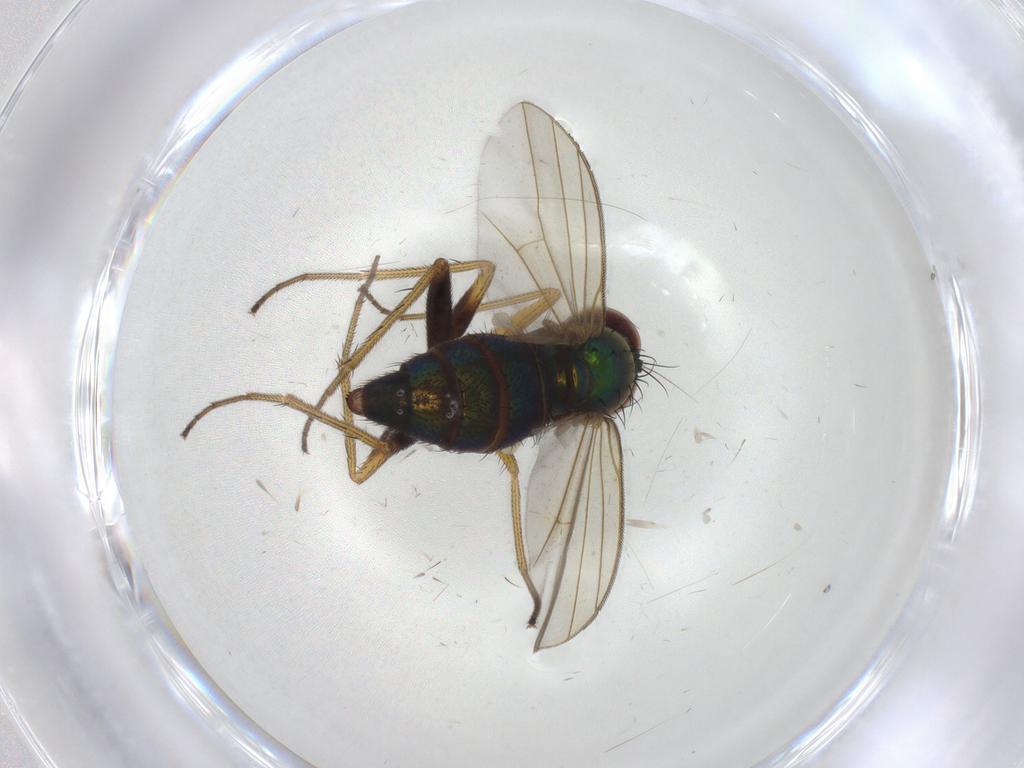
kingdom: Animalia
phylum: Arthropoda
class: Insecta
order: Diptera
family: Dolichopodidae
